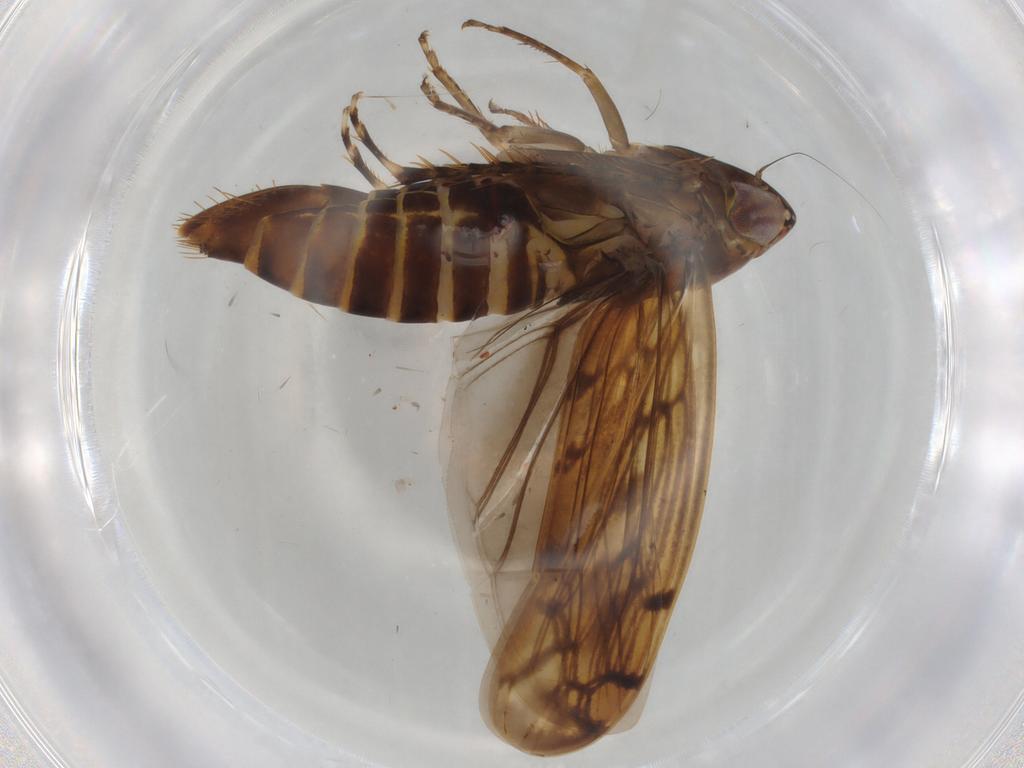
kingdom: Animalia
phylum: Arthropoda
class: Insecta
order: Hemiptera
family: Cicadellidae
